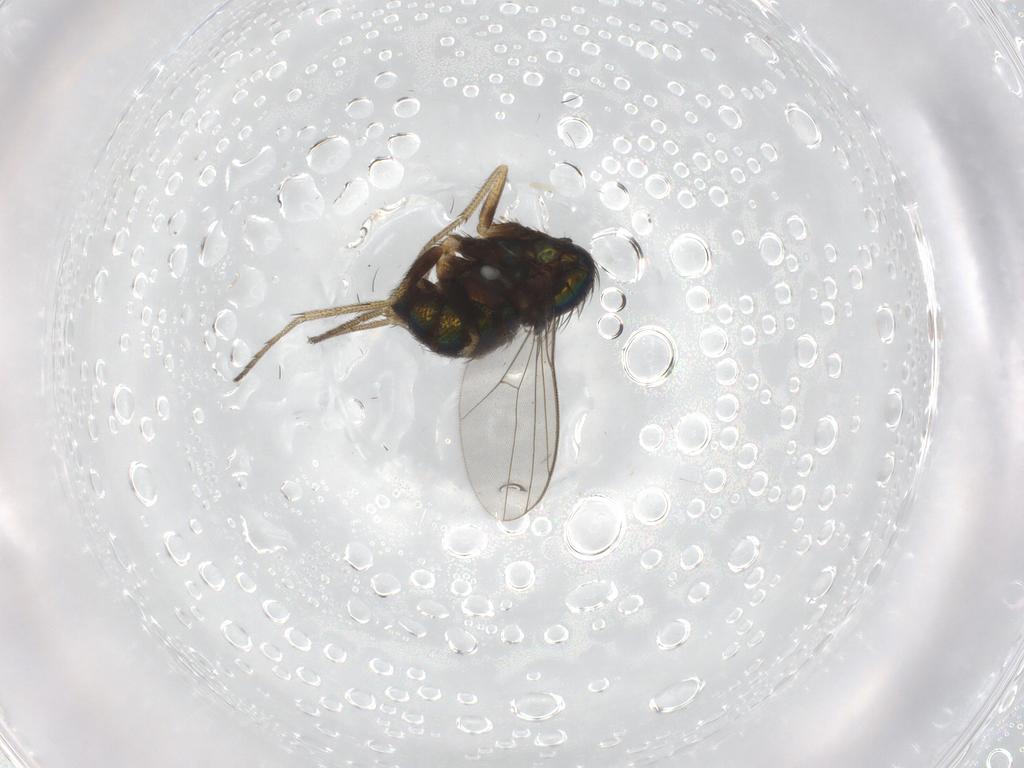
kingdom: Animalia
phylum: Arthropoda
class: Insecta
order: Diptera
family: Dolichopodidae
